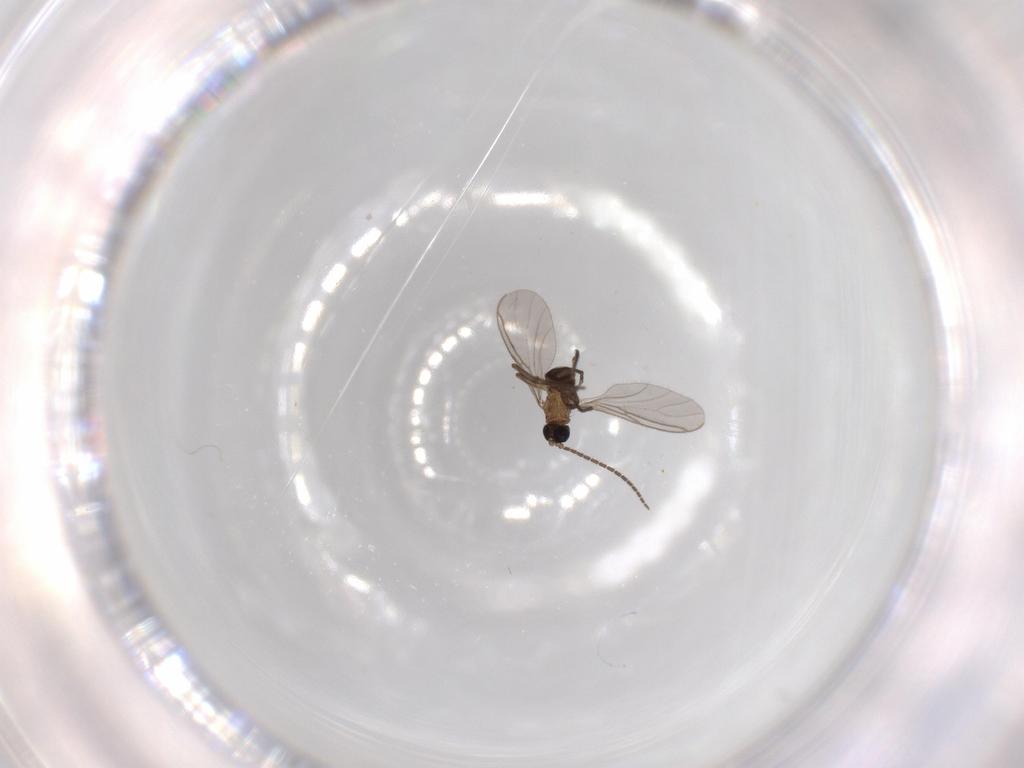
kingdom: Animalia
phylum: Arthropoda
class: Insecta
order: Diptera
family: Sciaridae
